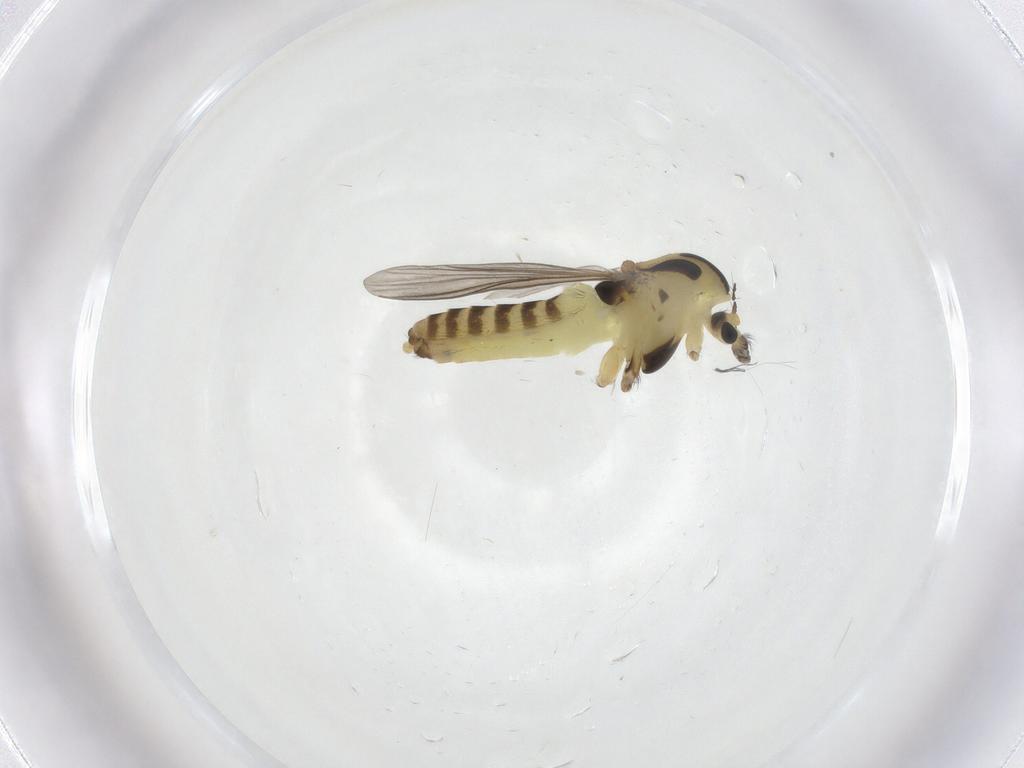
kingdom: Animalia
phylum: Arthropoda
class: Insecta
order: Diptera
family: Chironomidae
